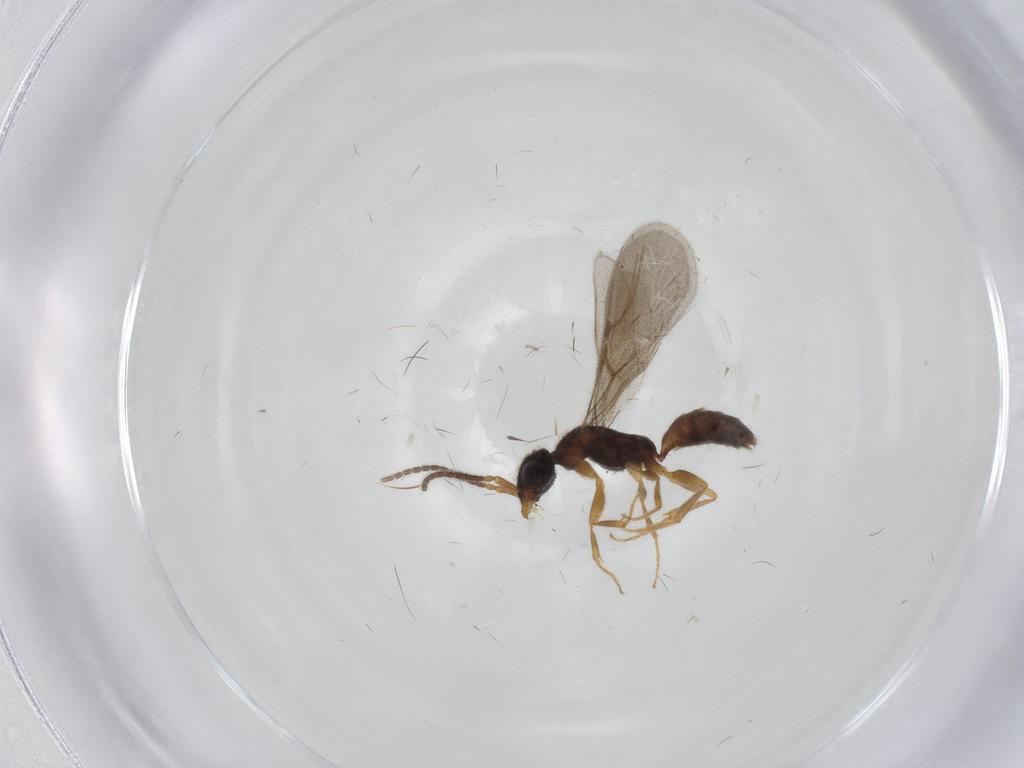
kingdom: Animalia
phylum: Arthropoda
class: Insecta
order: Hymenoptera
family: Bethylidae
